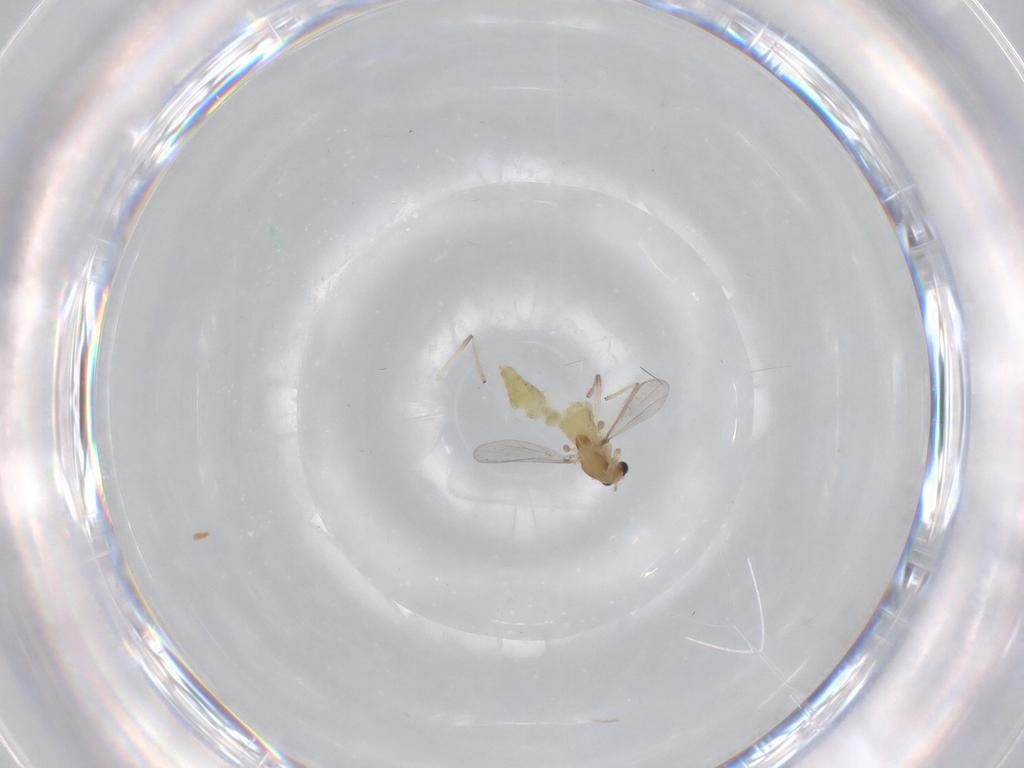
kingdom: Animalia
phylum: Arthropoda
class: Insecta
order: Diptera
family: Chironomidae
